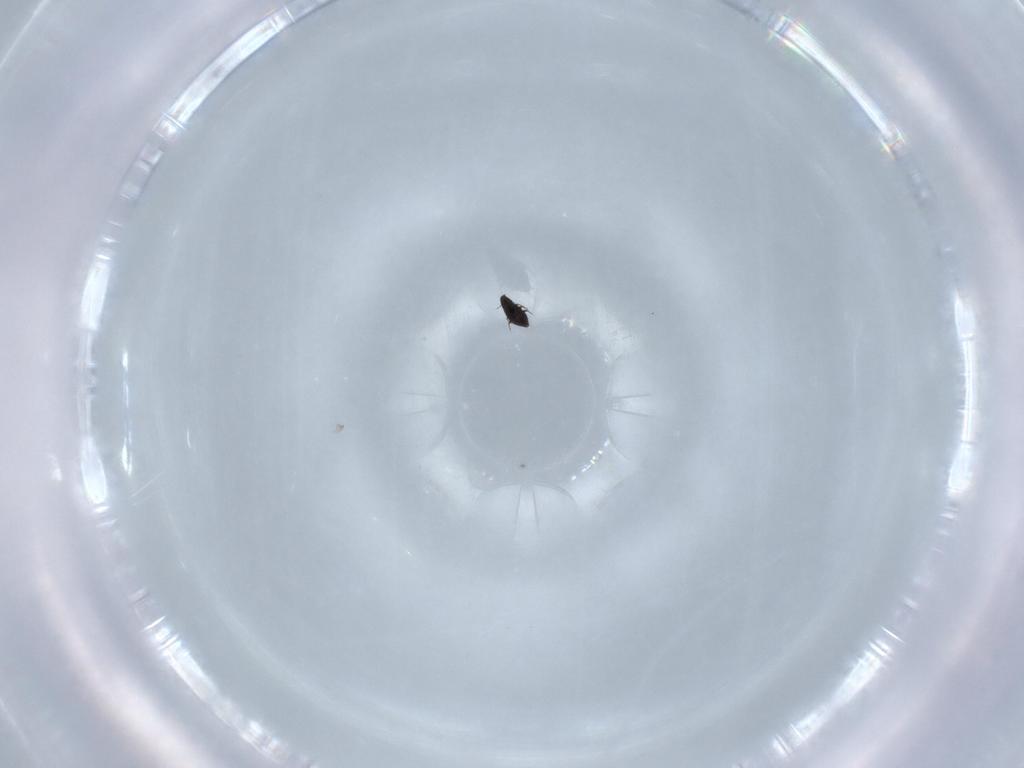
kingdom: Animalia
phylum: Arthropoda
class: Insecta
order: Coleoptera
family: Ripiphoridae
